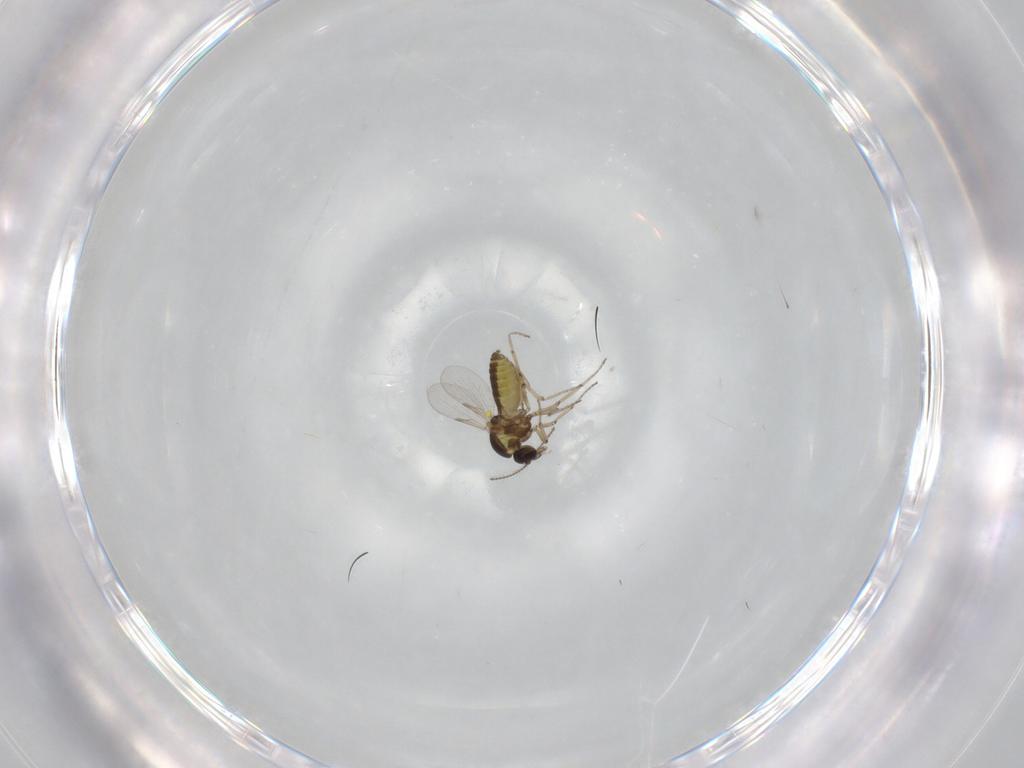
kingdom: Animalia
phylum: Arthropoda
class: Insecta
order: Diptera
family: Ceratopogonidae
